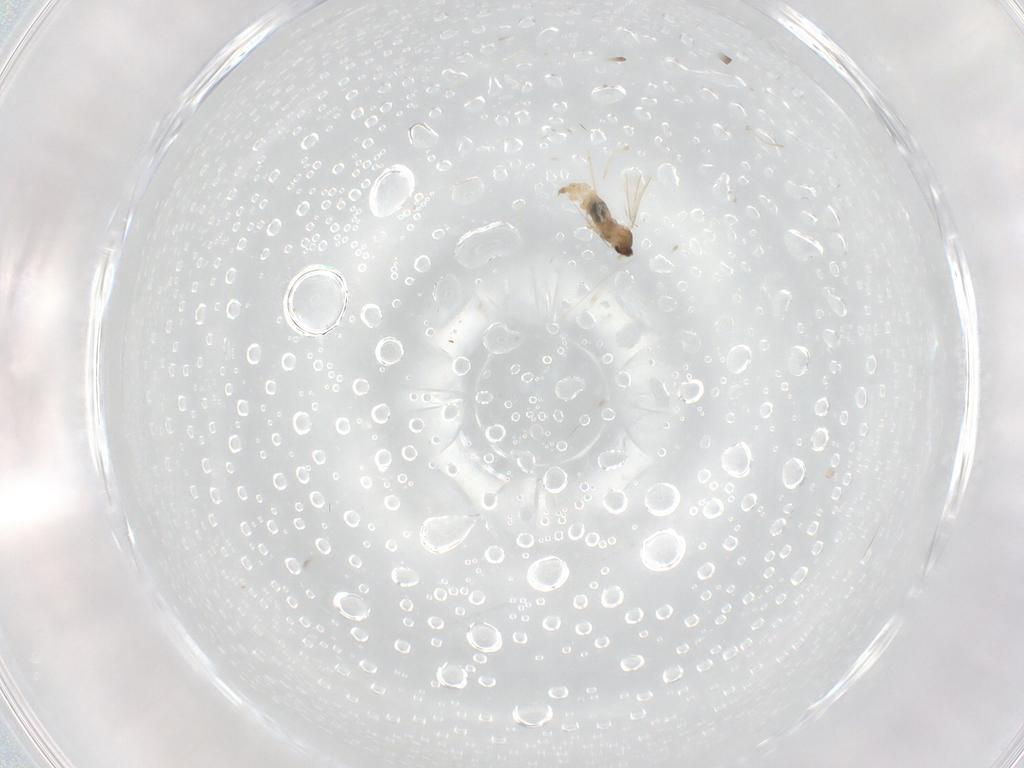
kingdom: Animalia
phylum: Arthropoda
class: Insecta
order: Diptera
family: Cecidomyiidae
